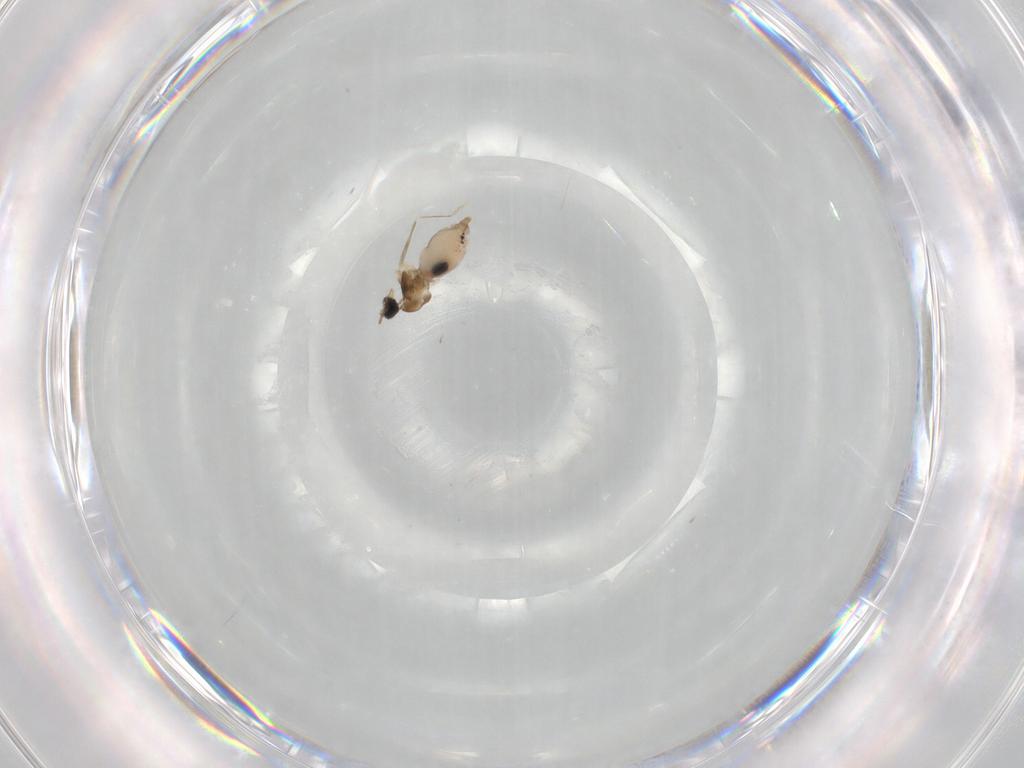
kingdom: Animalia
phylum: Arthropoda
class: Insecta
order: Diptera
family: Cecidomyiidae
